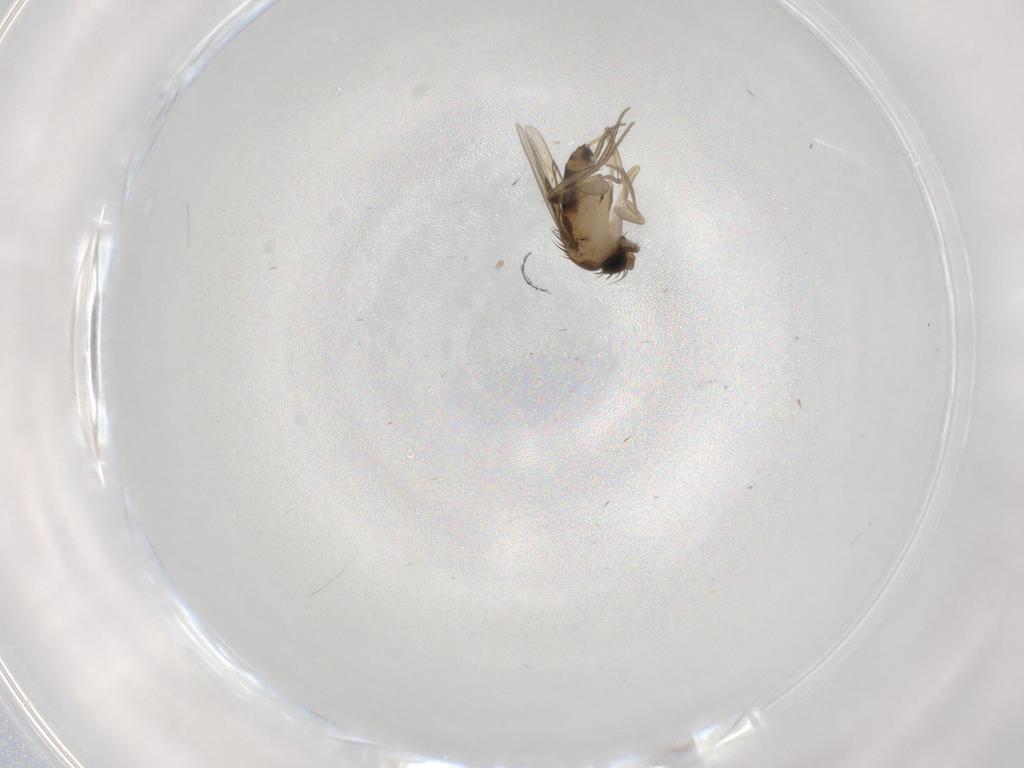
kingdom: Animalia
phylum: Arthropoda
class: Insecta
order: Diptera
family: Phoridae
